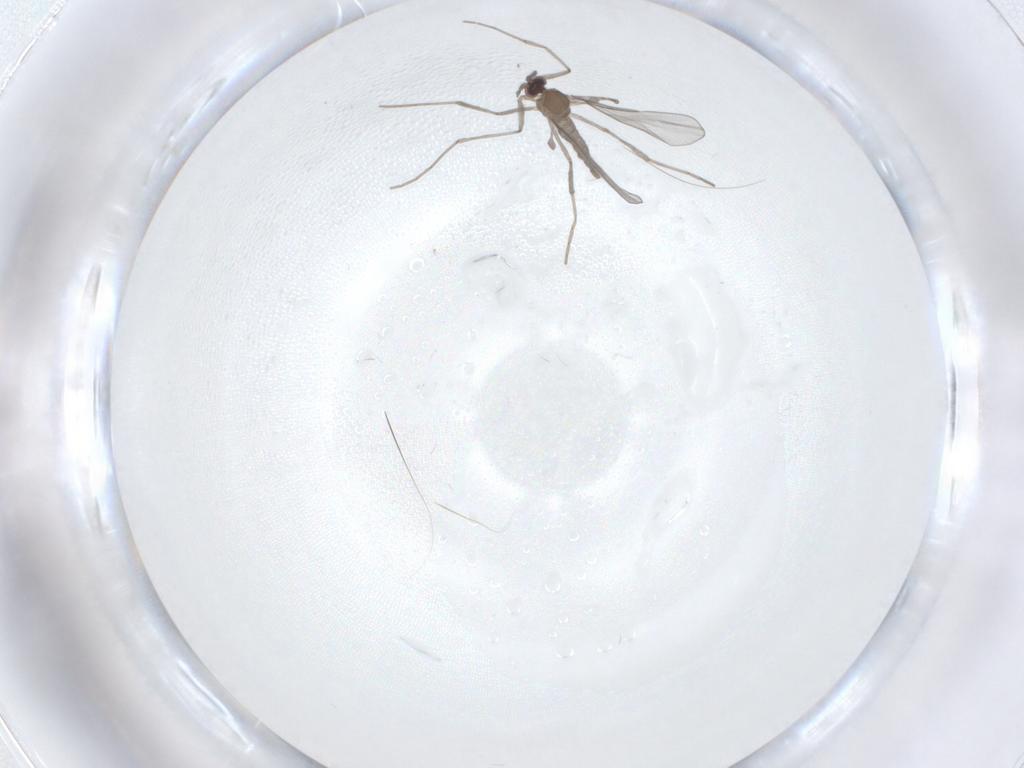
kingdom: Animalia
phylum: Arthropoda
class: Insecta
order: Diptera
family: Cecidomyiidae
